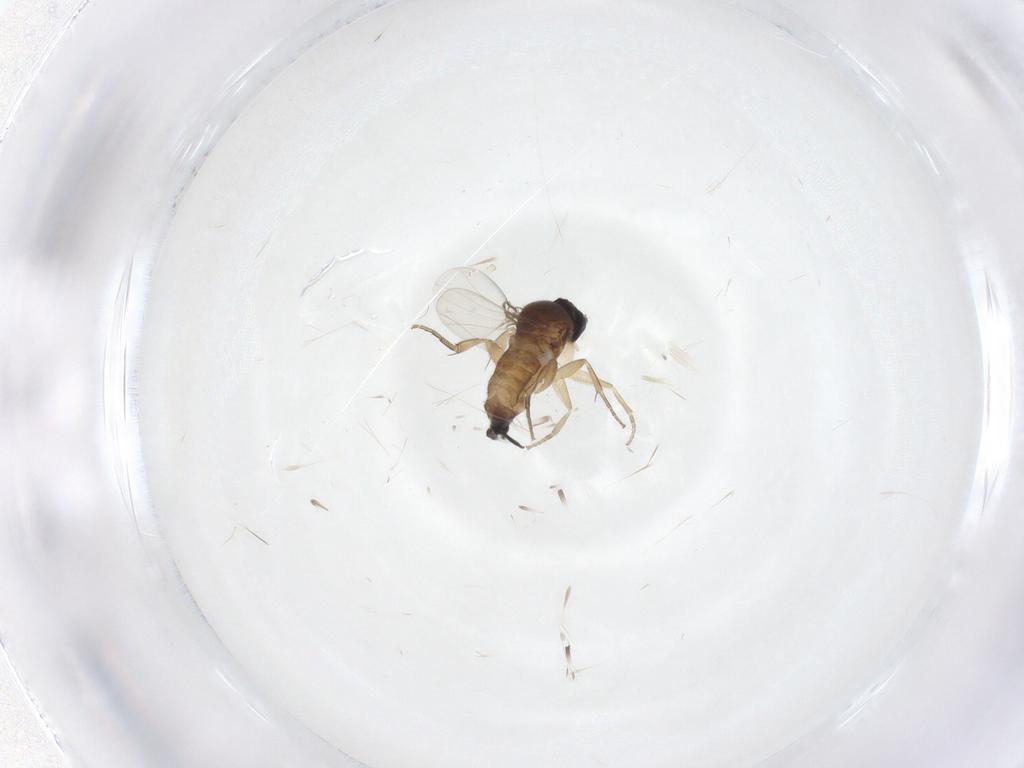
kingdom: Animalia
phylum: Arthropoda
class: Insecta
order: Diptera
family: Phoridae
